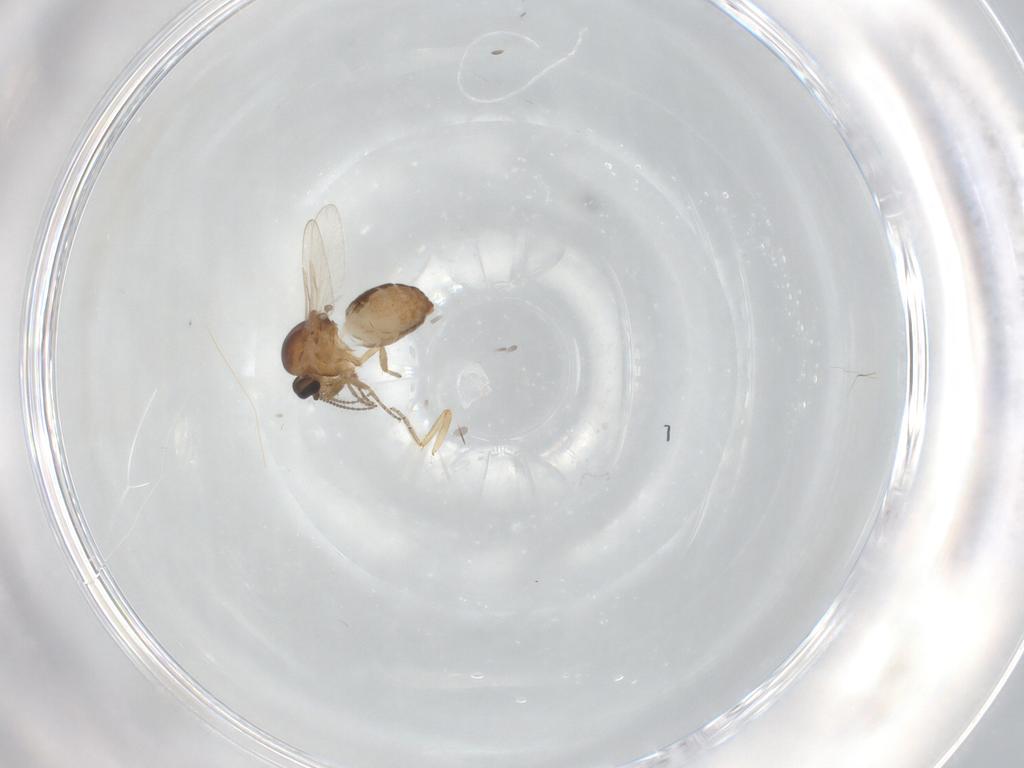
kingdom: Animalia
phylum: Arthropoda
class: Insecta
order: Diptera
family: Ceratopogonidae
